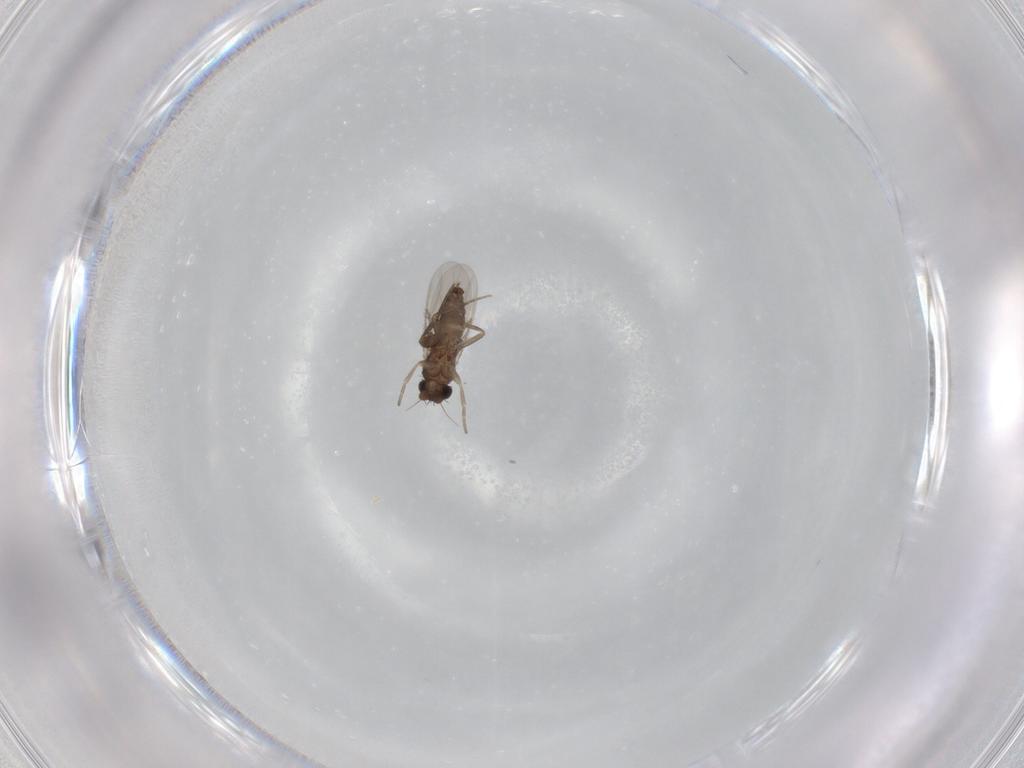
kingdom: Animalia
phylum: Arthropoda
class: Insecta
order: Diptera
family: Phoridae
